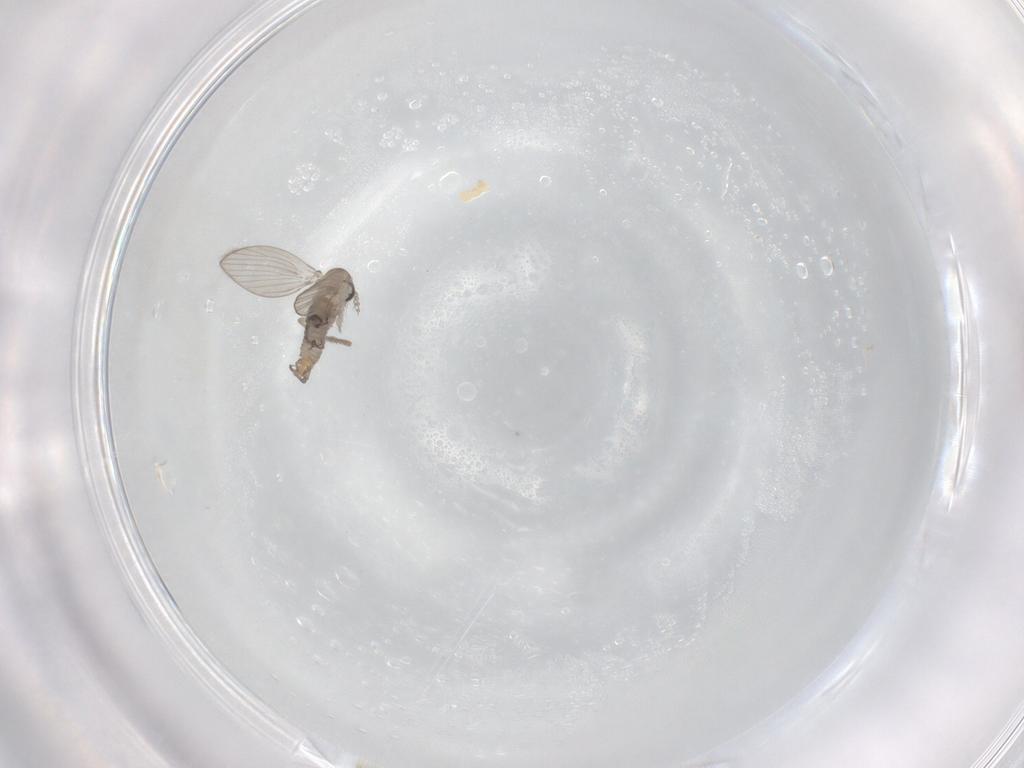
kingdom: Animalia
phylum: Arthropoda
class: Insecta
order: Diptera
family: Psychodidae
